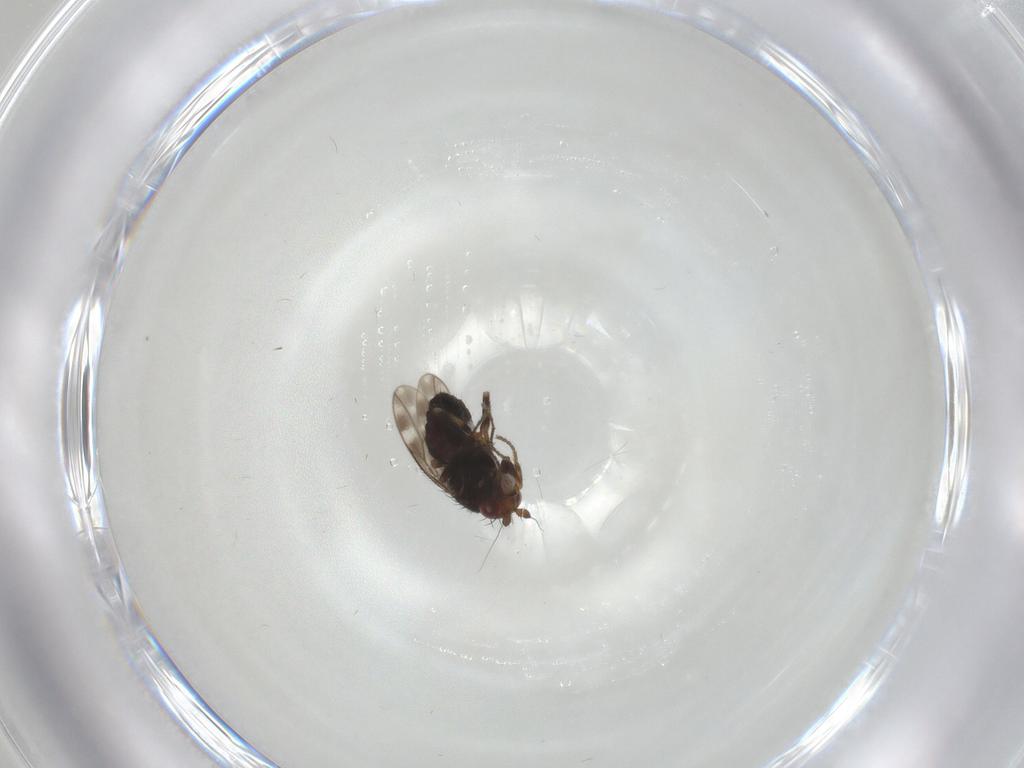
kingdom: Animalia
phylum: Arthropoda
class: Insecta
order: Diptera
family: Sphaeroceridae
